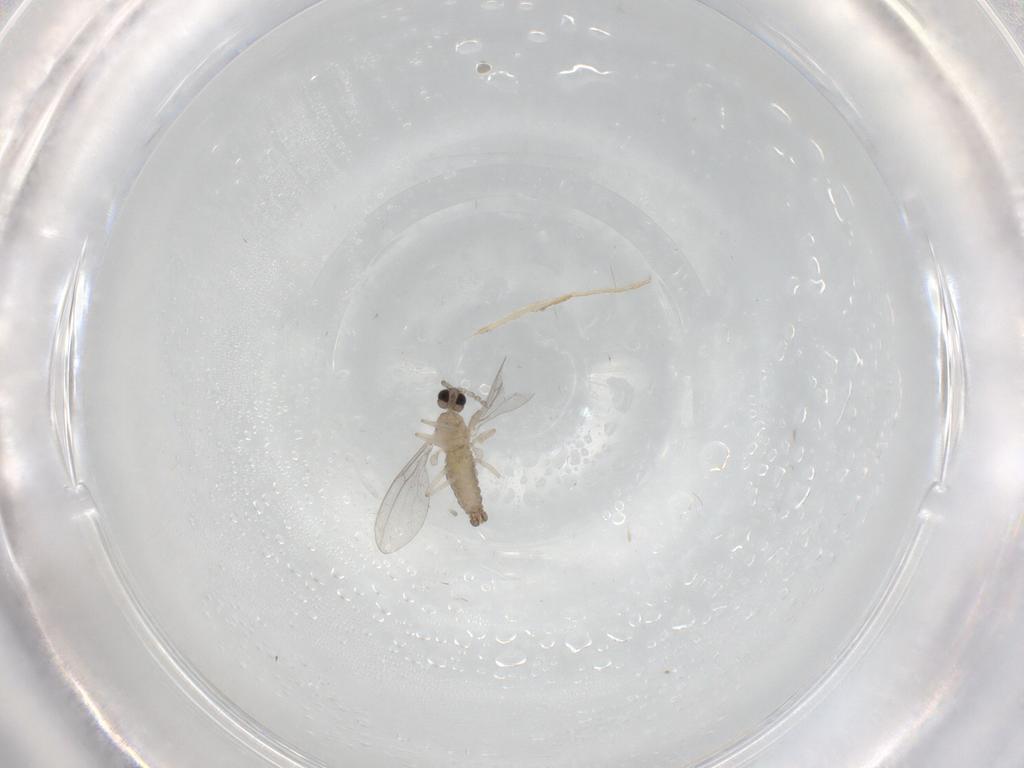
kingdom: Animalia
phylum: Arthropoda
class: Insecta
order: Diptera
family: Cecidomyiidae
